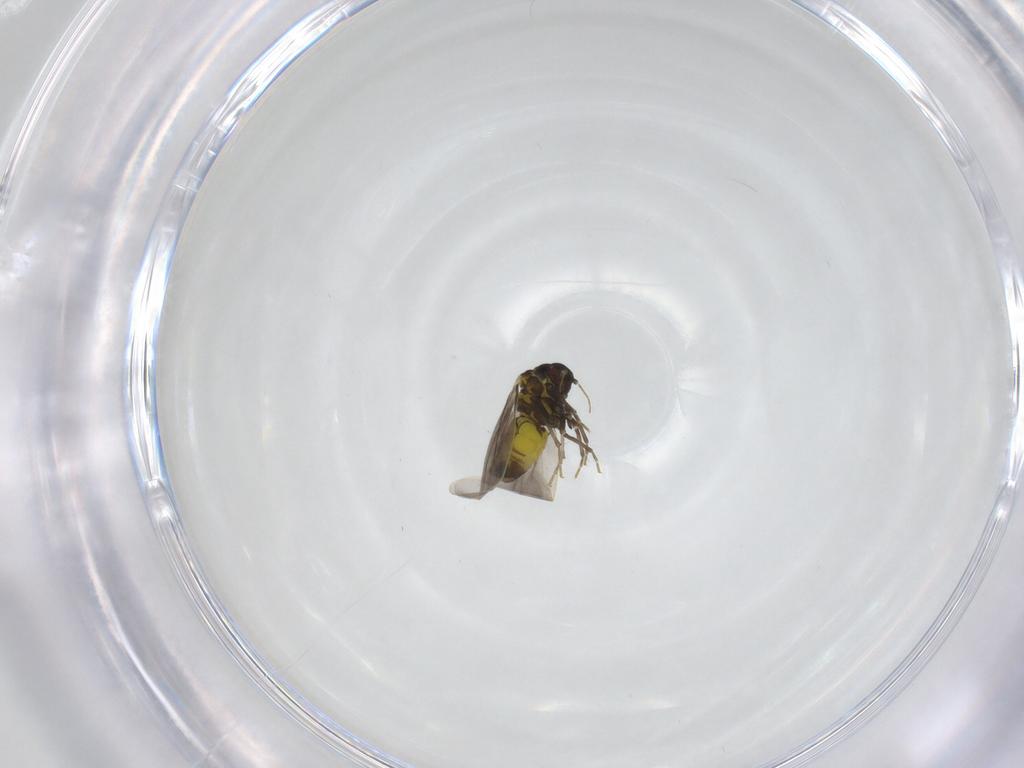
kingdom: Animalia
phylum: Arthropoda
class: Insecta
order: Hemiptera
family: Aleyrodidae
